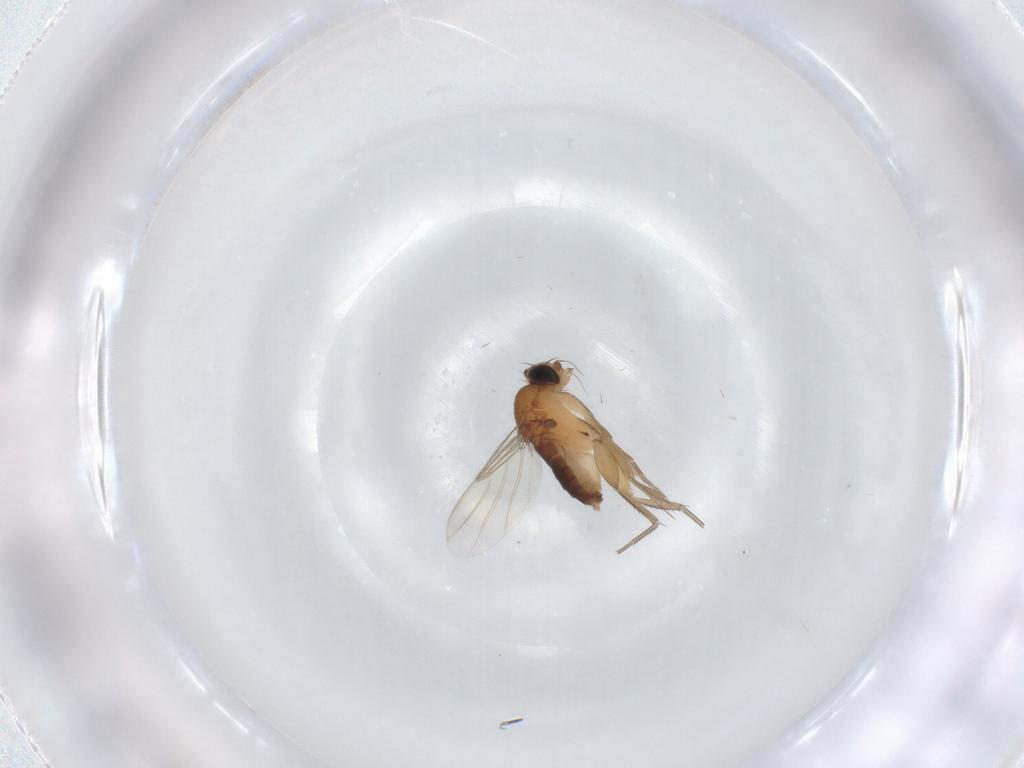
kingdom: Animalia
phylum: Arthropoda
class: Insecta
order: Diptera
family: Phoridae
